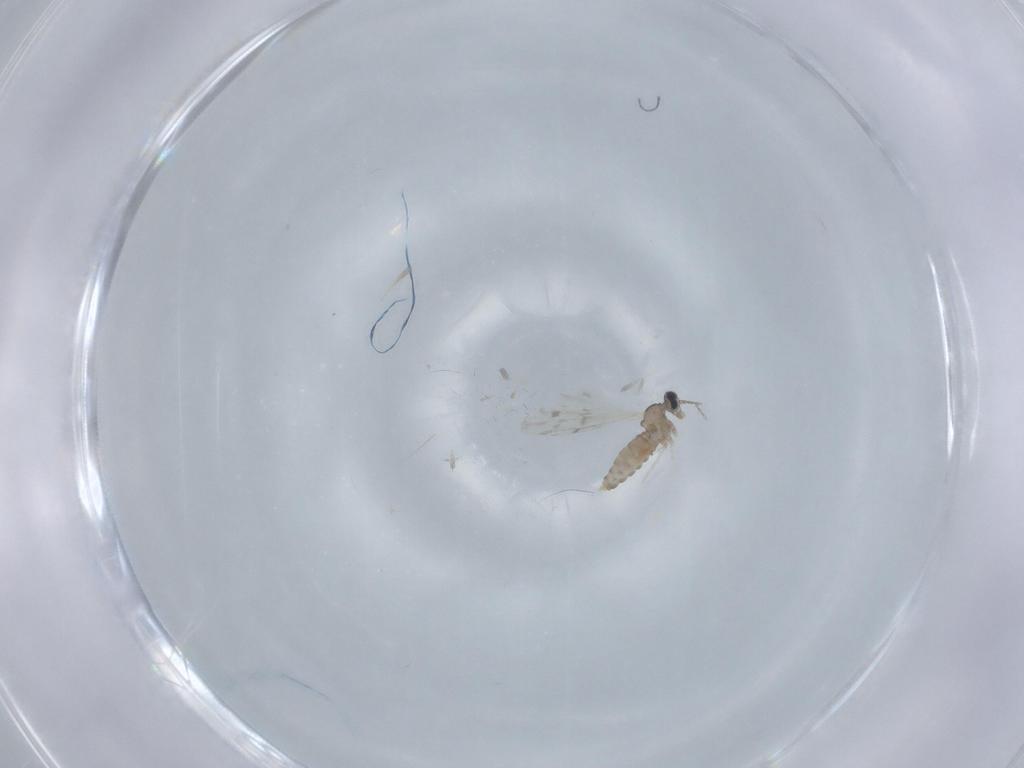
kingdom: Animalia
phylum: Arthropoda
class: Insecta
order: Diptera
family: Cecidomyiidae
